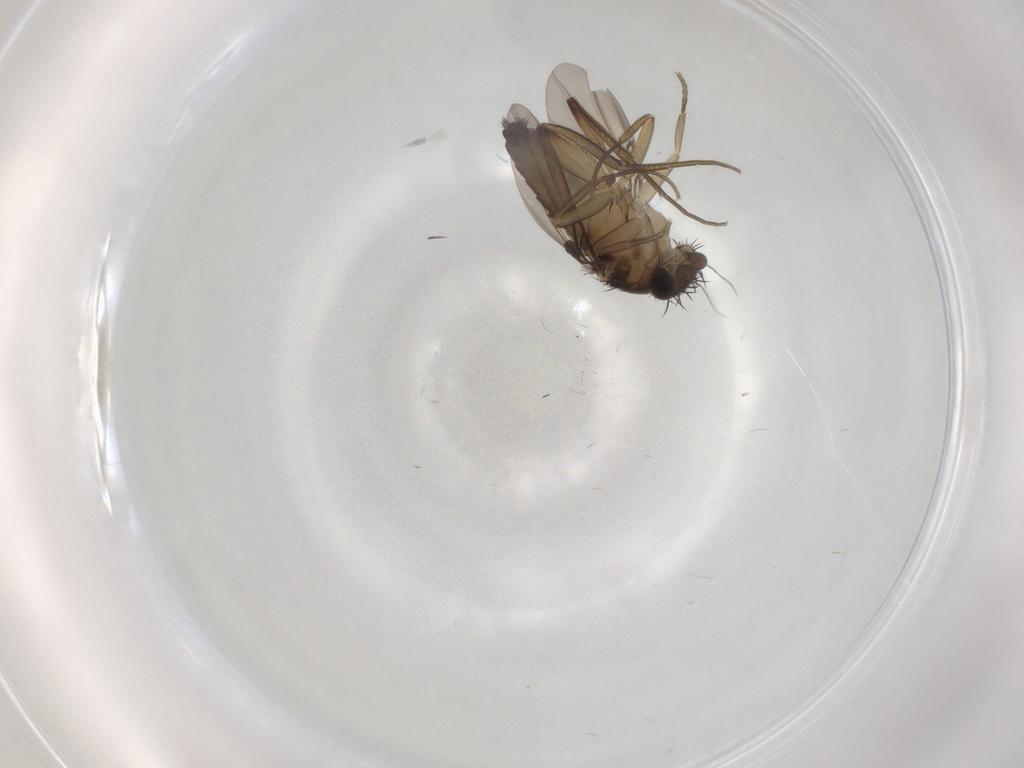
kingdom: Animalia
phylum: Arthropoda
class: Insecta
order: Diptera
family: Phoridae
